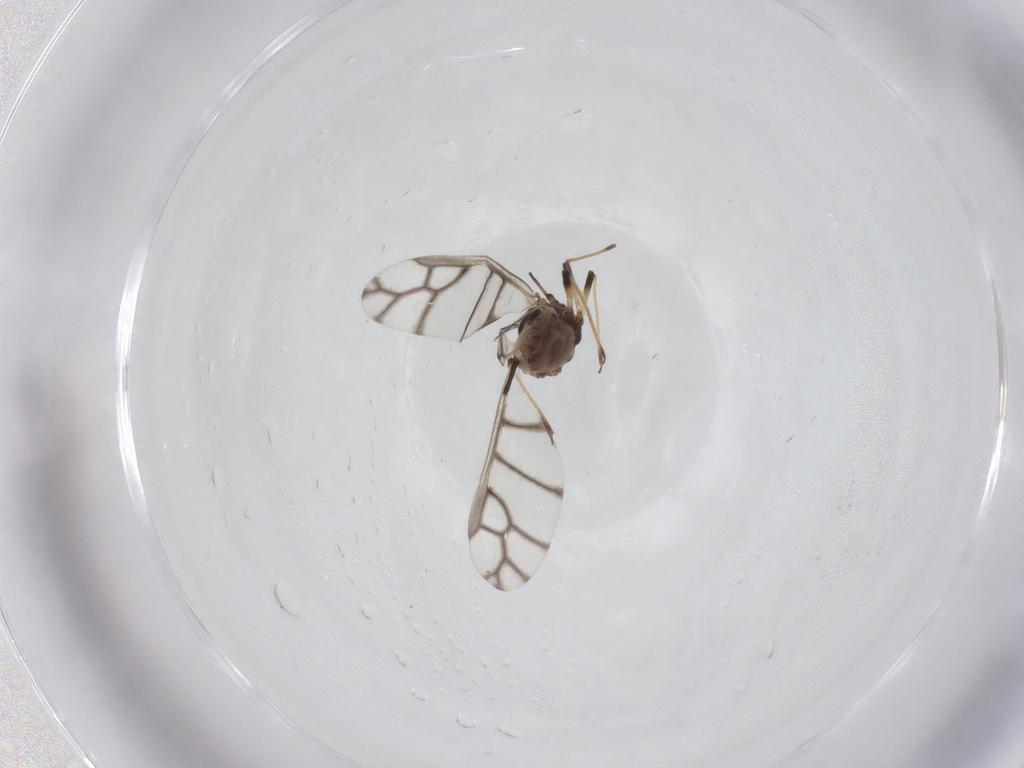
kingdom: Animalia
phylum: Arthropoda
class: Insecta
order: Hemiptera
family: Aphididae
